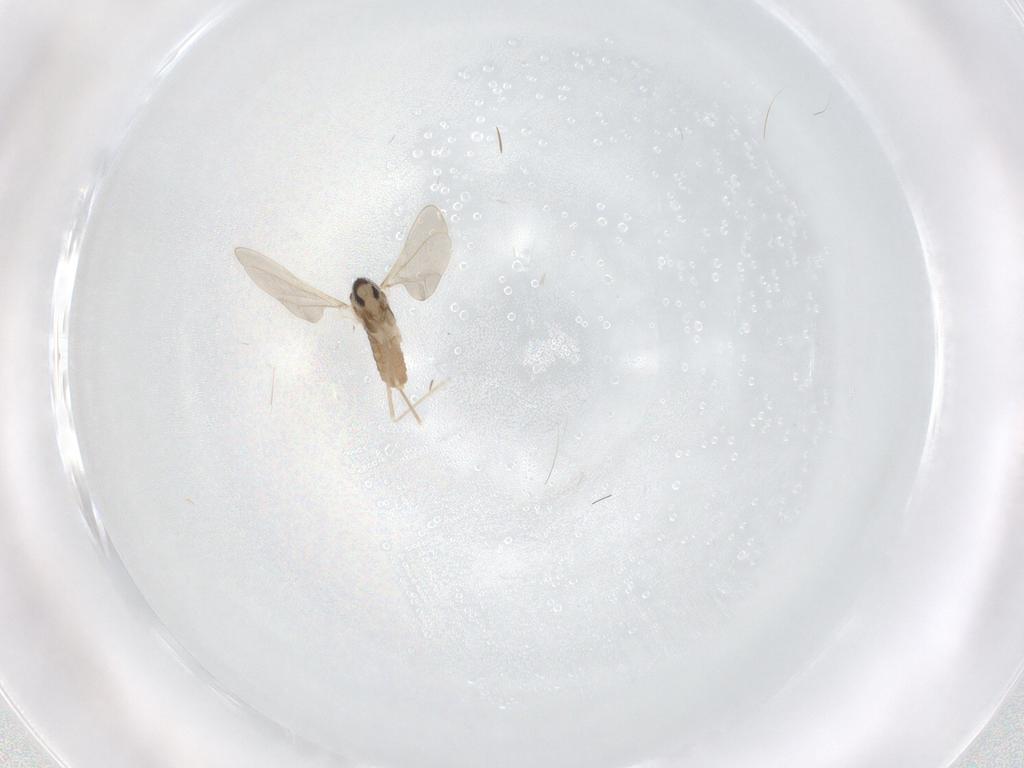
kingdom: Animalia
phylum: Arthropoda
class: Insecta
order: Diptera
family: Cecidomyiidae
